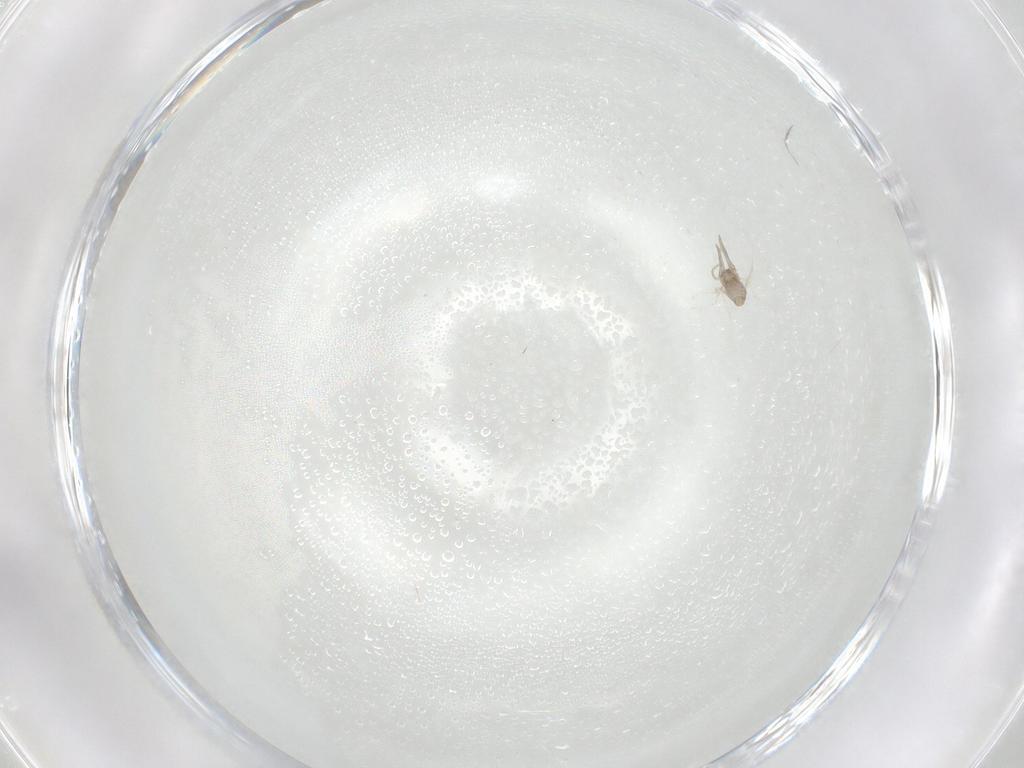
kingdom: Animalia
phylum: Arthropoda
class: Insecta
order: Diptera
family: Cecidomyiidae
